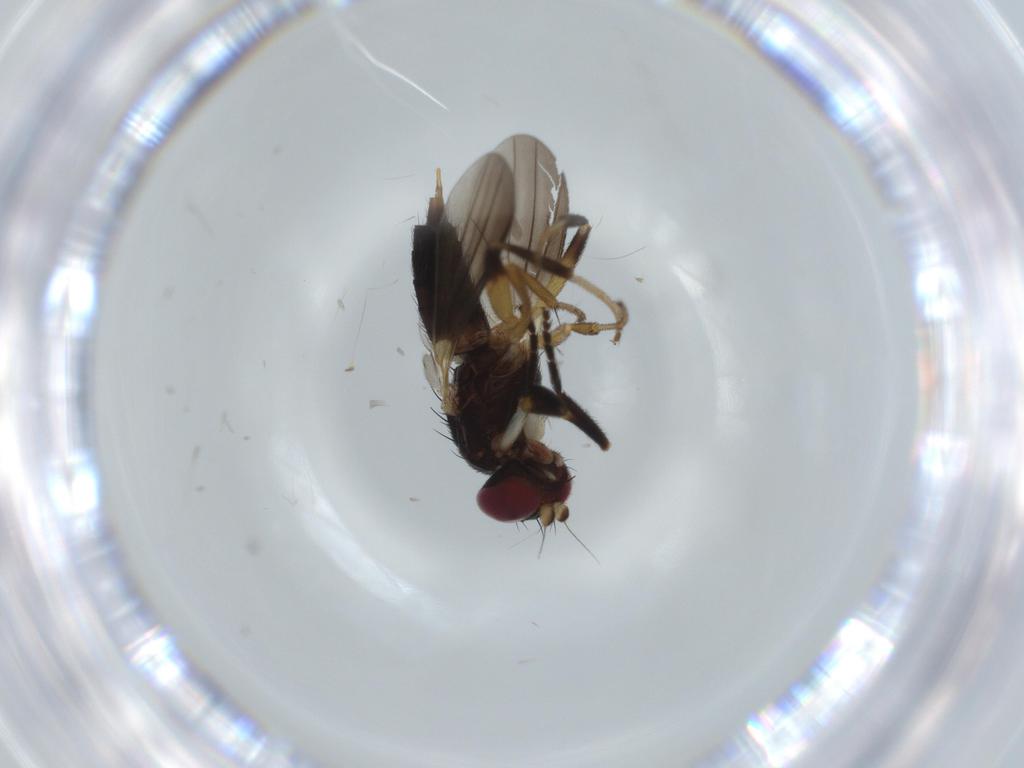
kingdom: Animalia
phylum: Arthropoda
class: Insecta
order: Diptera
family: Clusiidae
